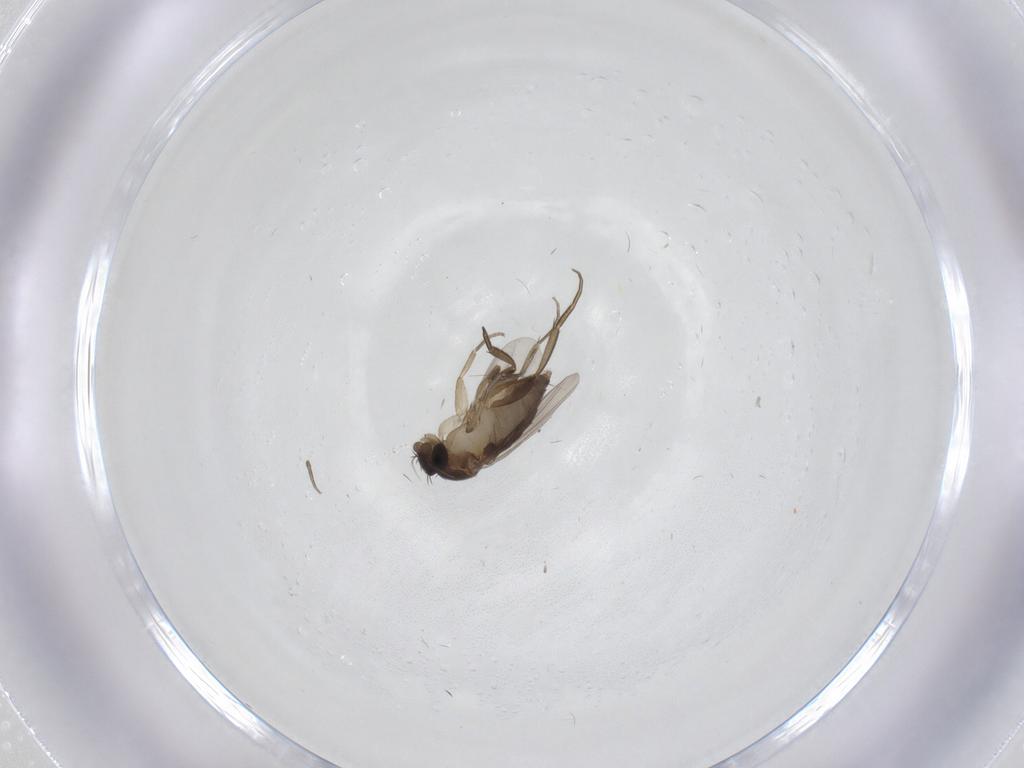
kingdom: Animalia
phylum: Arthropoda
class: Insecta
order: Diptera
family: Phoridae
